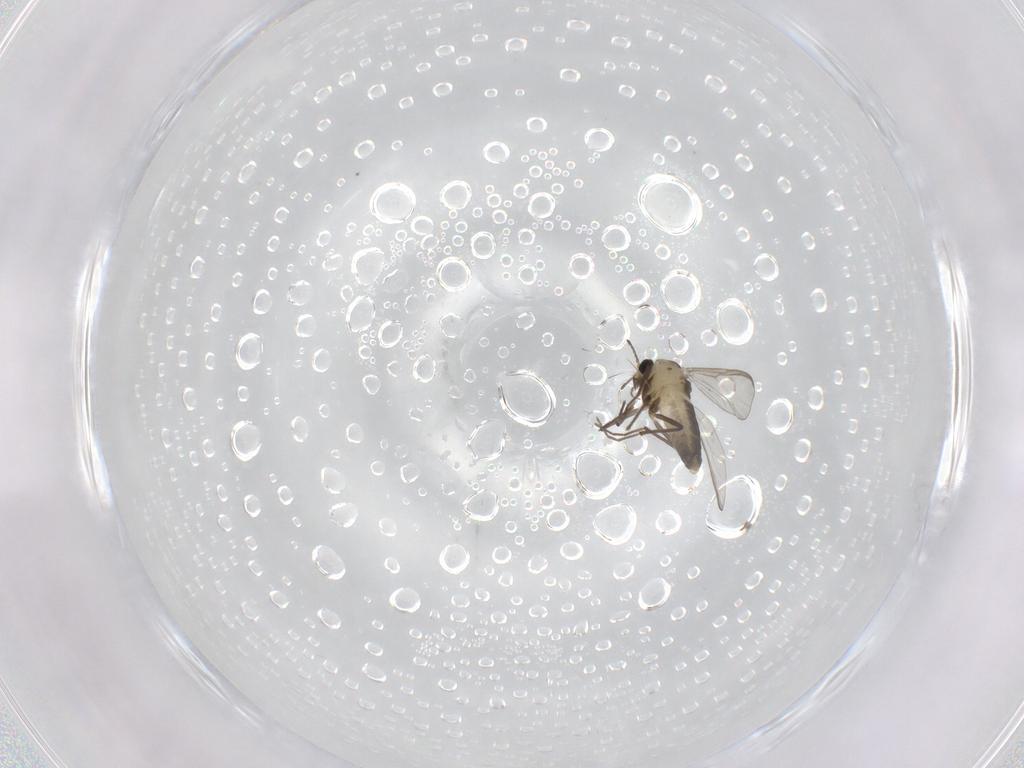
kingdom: Animalia
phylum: Arthropoda
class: Insecta
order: Diptera
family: Chironomidae
